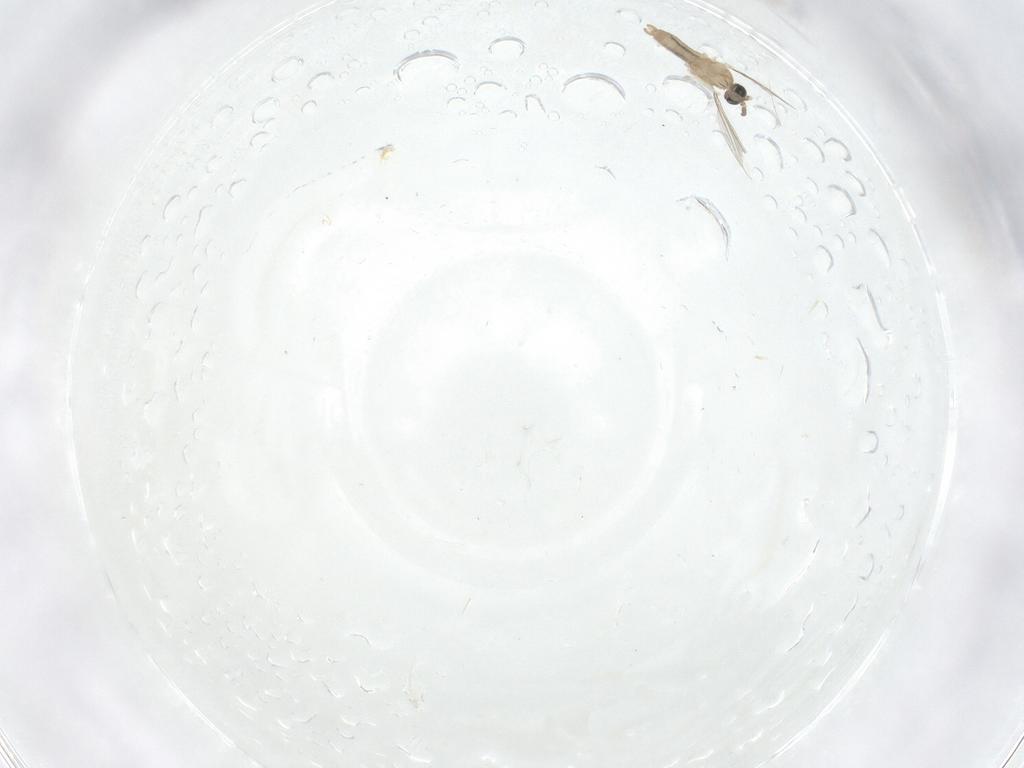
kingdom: Animalia
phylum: Arthropoda
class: Insecta
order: Diptera
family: Cecidomyiidae
